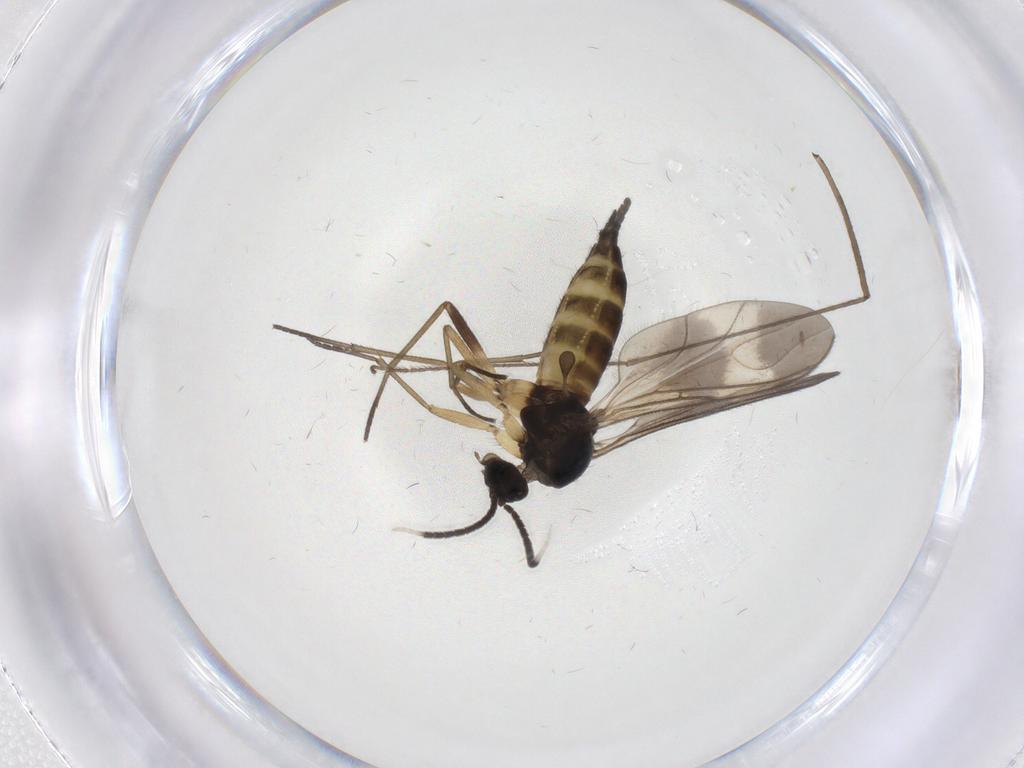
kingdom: Animalia
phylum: Arthropoda
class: Insecta
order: Diptera
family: Sciaridae
